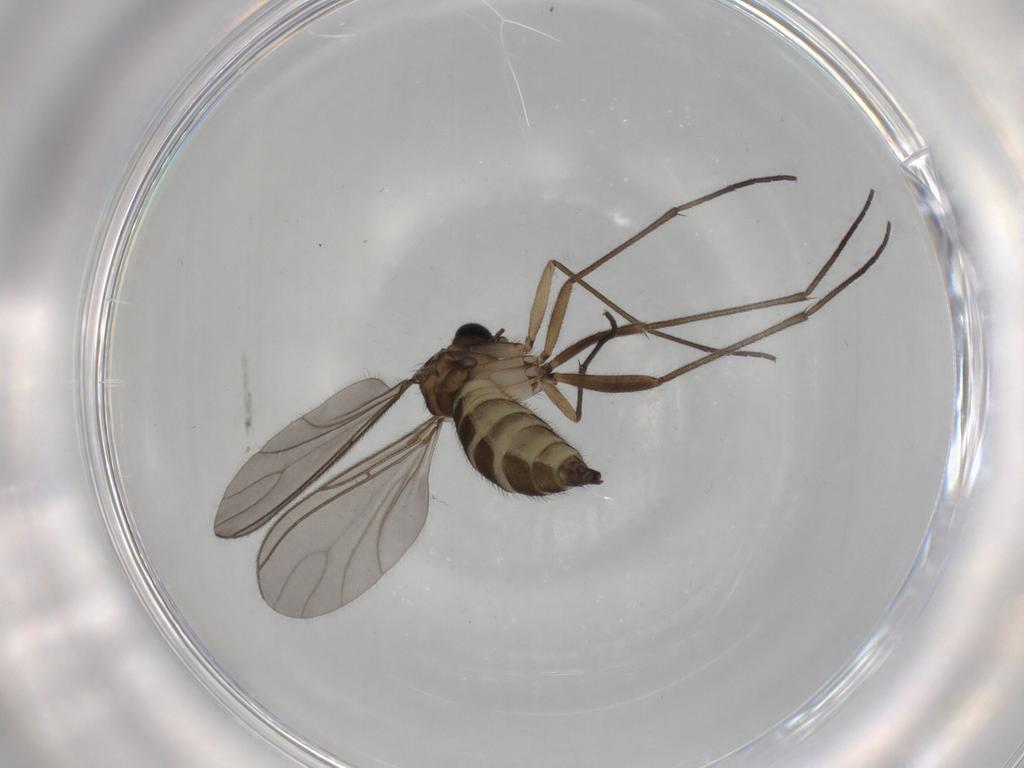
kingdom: Animalia
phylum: Arthropoda
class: Insecta
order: Diptera
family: Sciaridae
